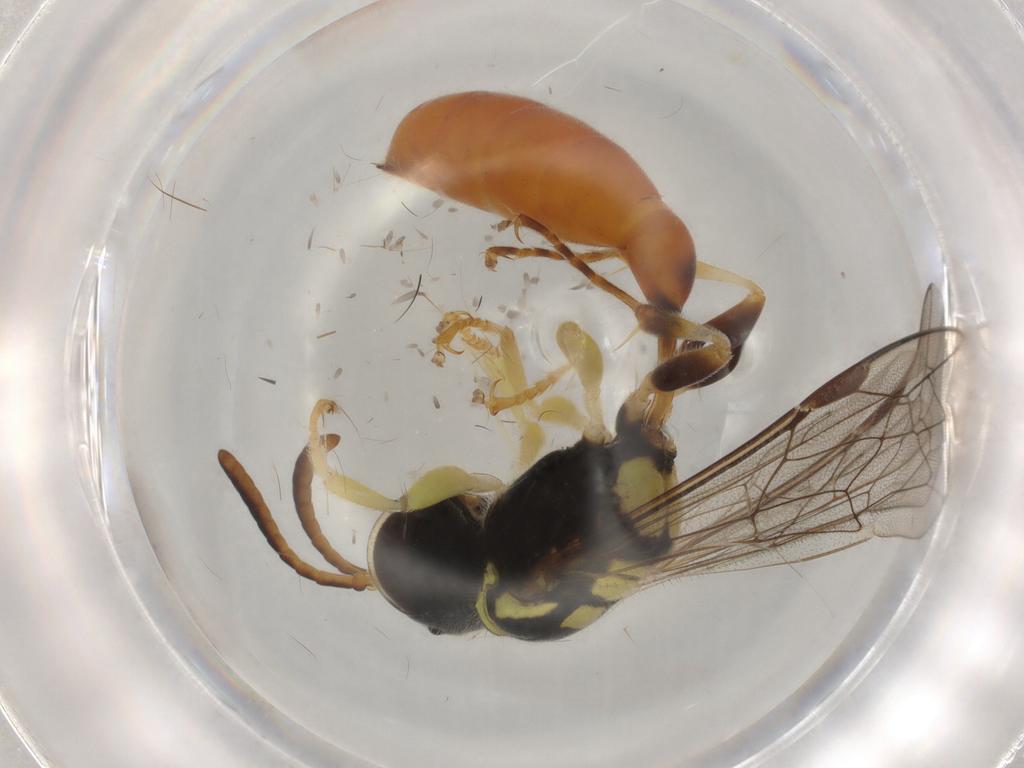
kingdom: Animalia
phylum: Arthropoda
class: Insecta
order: Hymenoptera
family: Crabronidae
